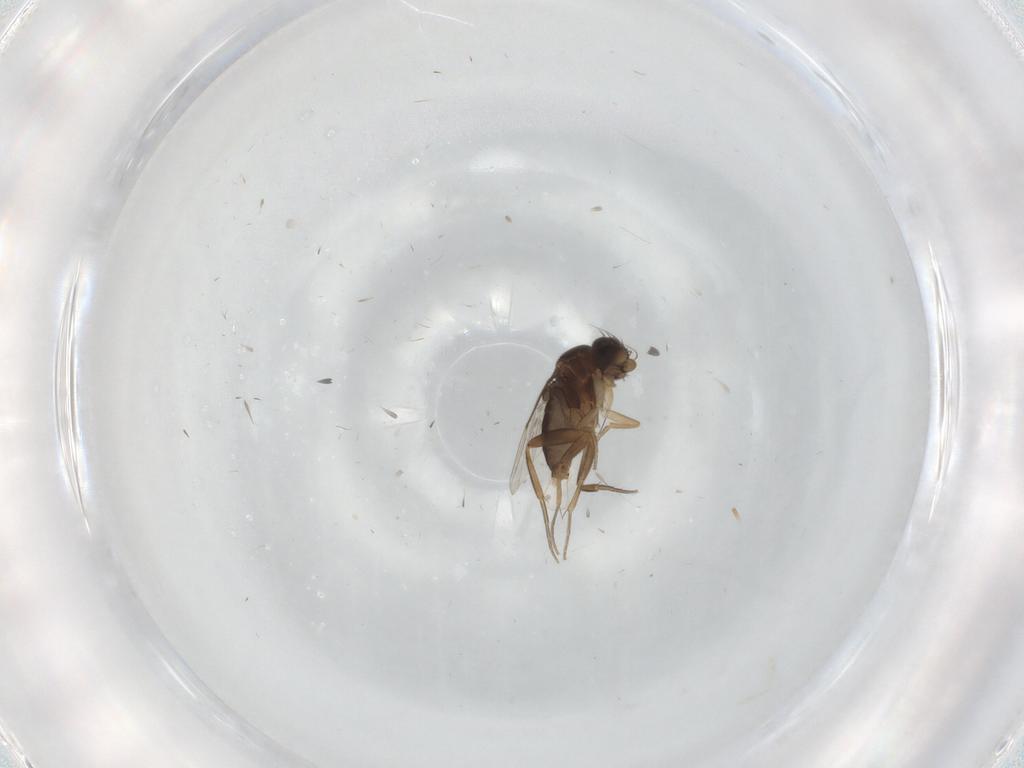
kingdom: Animalia
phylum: Arthropoda
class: Insecta
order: Diptera
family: Phoridae
